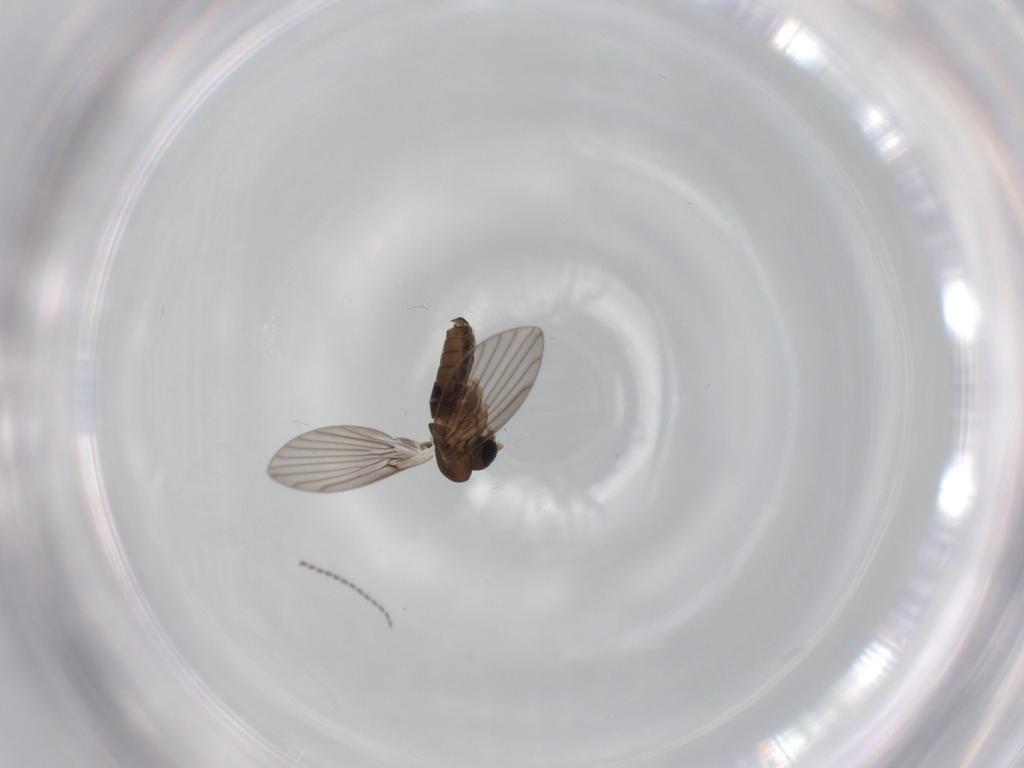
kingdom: Animalia
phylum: Arthropoda
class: Insecta
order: Diptera
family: Psychodidae
